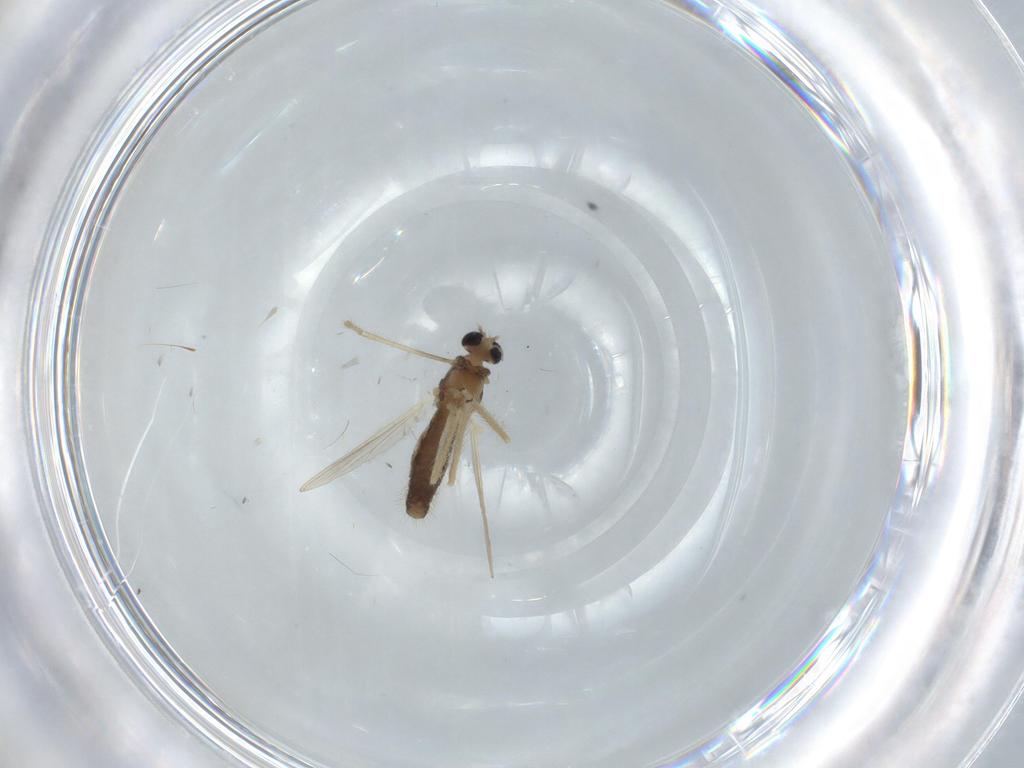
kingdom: Animalia
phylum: Arthropoda
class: Insecta
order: Diptera
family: Chironomidae
